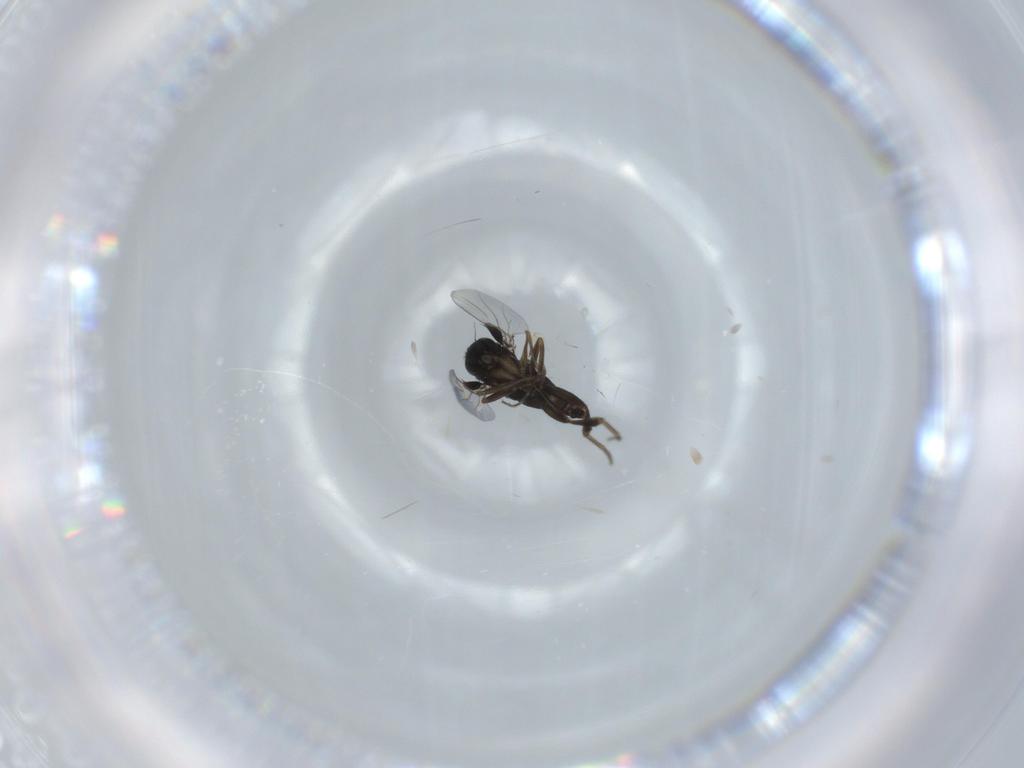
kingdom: Animalia
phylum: Arthropoda
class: Insecta
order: Diptera
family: Phoridae
